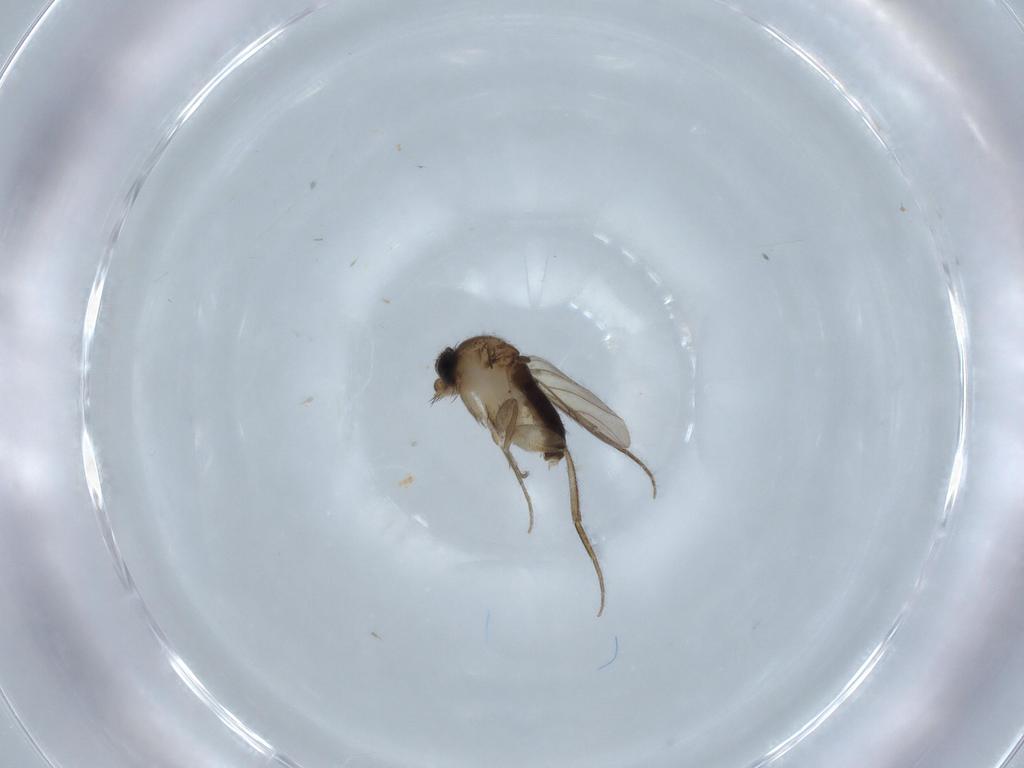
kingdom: Animalia
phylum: Arthropoda
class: Insecta
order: Diptera
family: Phoridae
